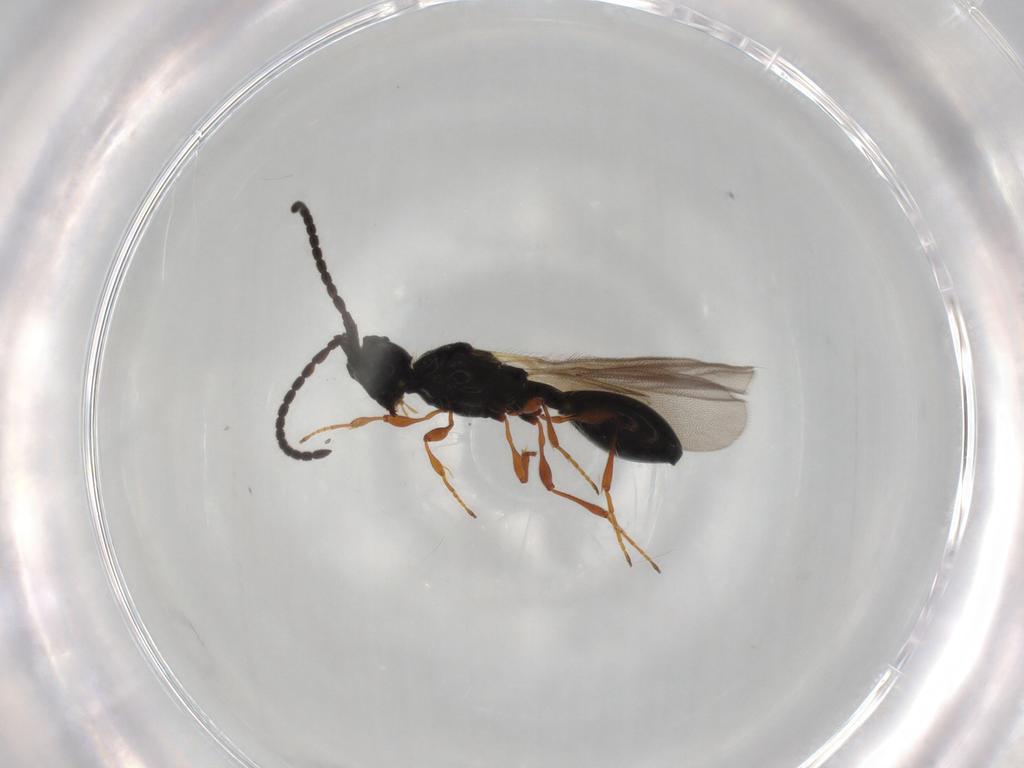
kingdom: Animalia
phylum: Arthropoda
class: Insecta
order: Hymenoptera
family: Diapriidae
